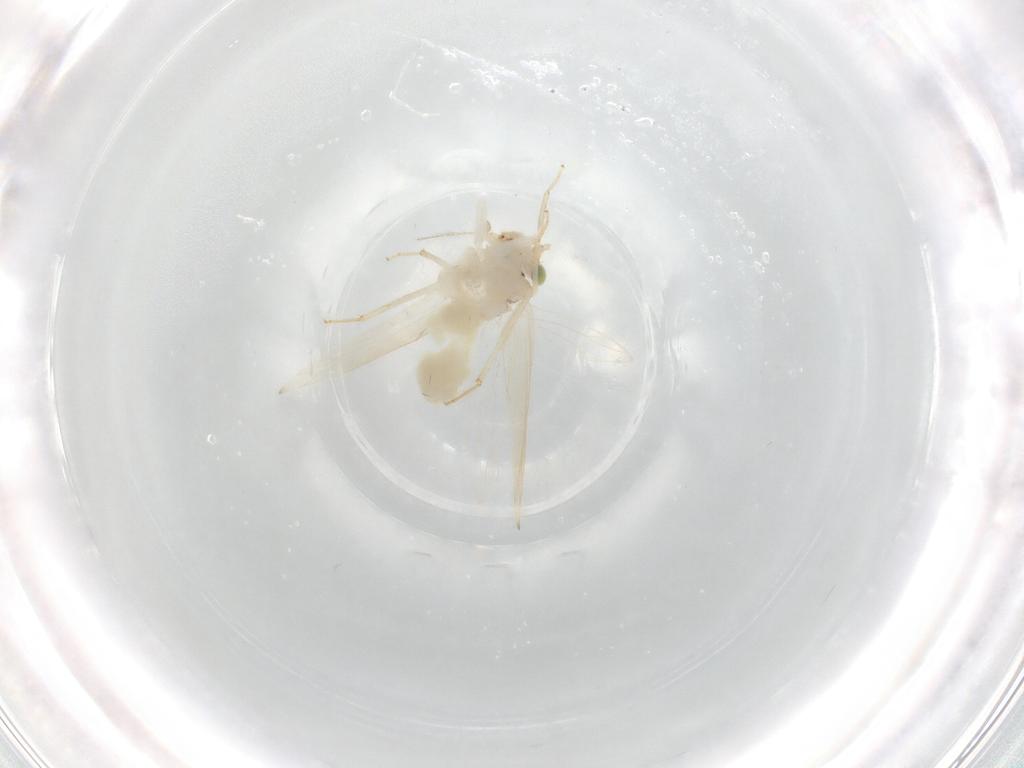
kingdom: Animalia
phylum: Arthropoda
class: Insecta
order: Psocodea
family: Lepidopsocidae
